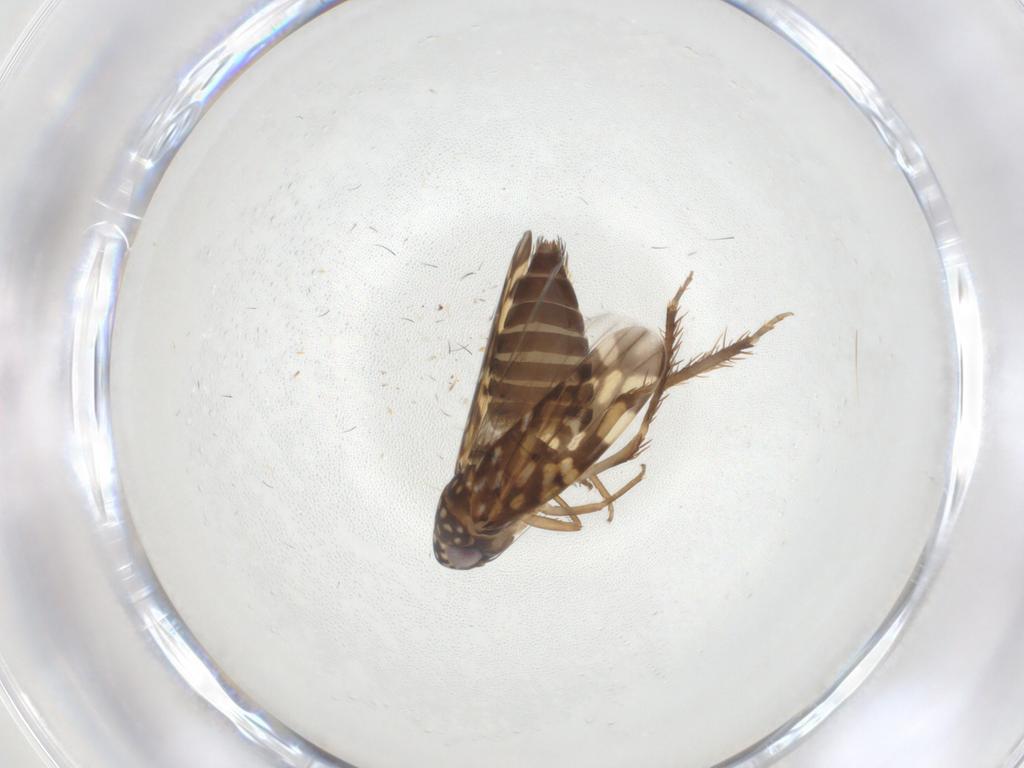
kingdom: Animalia
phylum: Arthropoda
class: Insecta
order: Hemiptera
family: Cicadellidae
